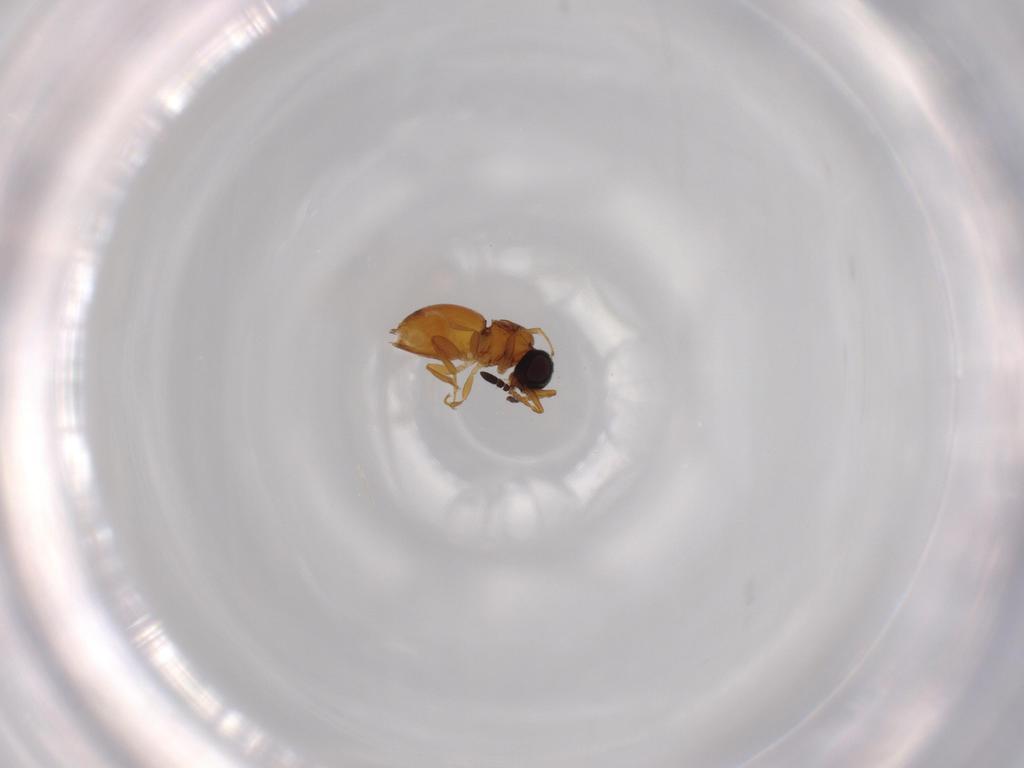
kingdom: Animalia
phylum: Arthropoda
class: Insecta
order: Hymenoptera
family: Ceraphronidae
